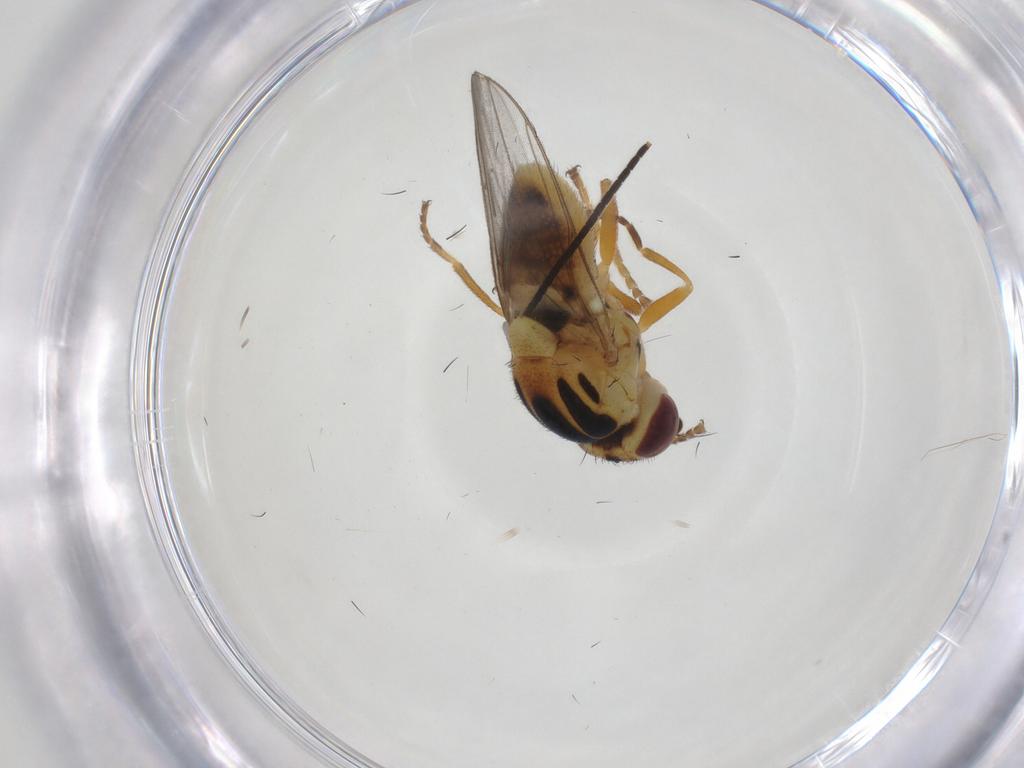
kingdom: Animalia
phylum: Arthropoda
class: Insecta
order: Diptera
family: Chloropidae
